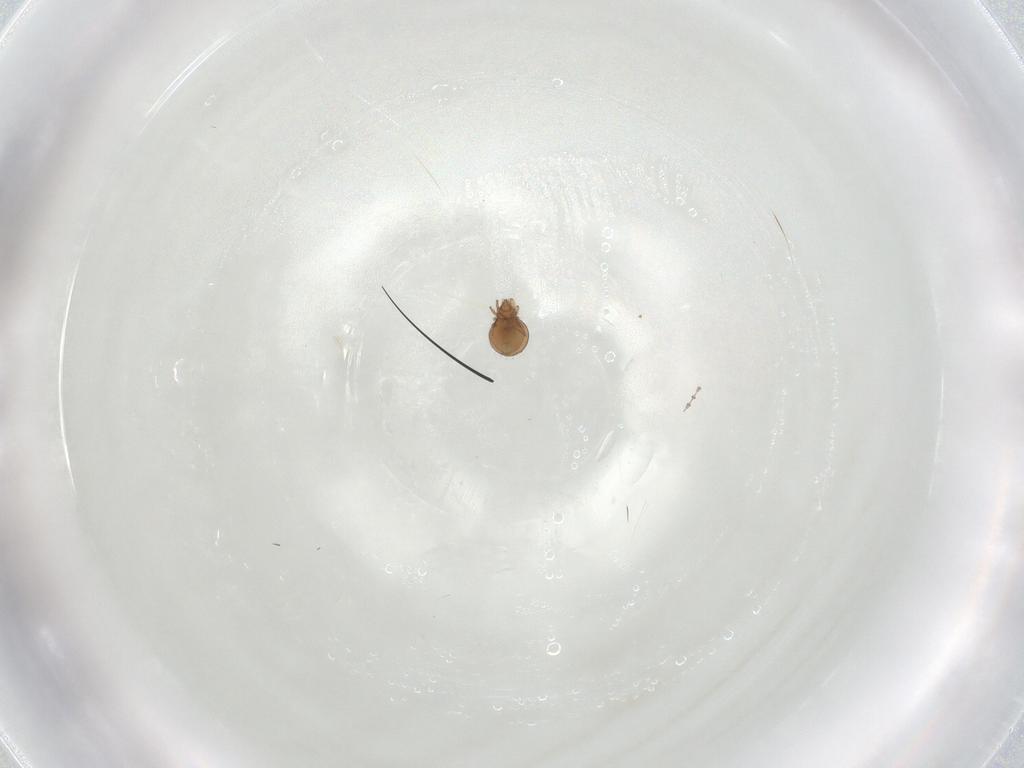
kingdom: Animalia
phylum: Arthropoda
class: Arachnida
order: Sarcoptiformes
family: Oribatulidae
